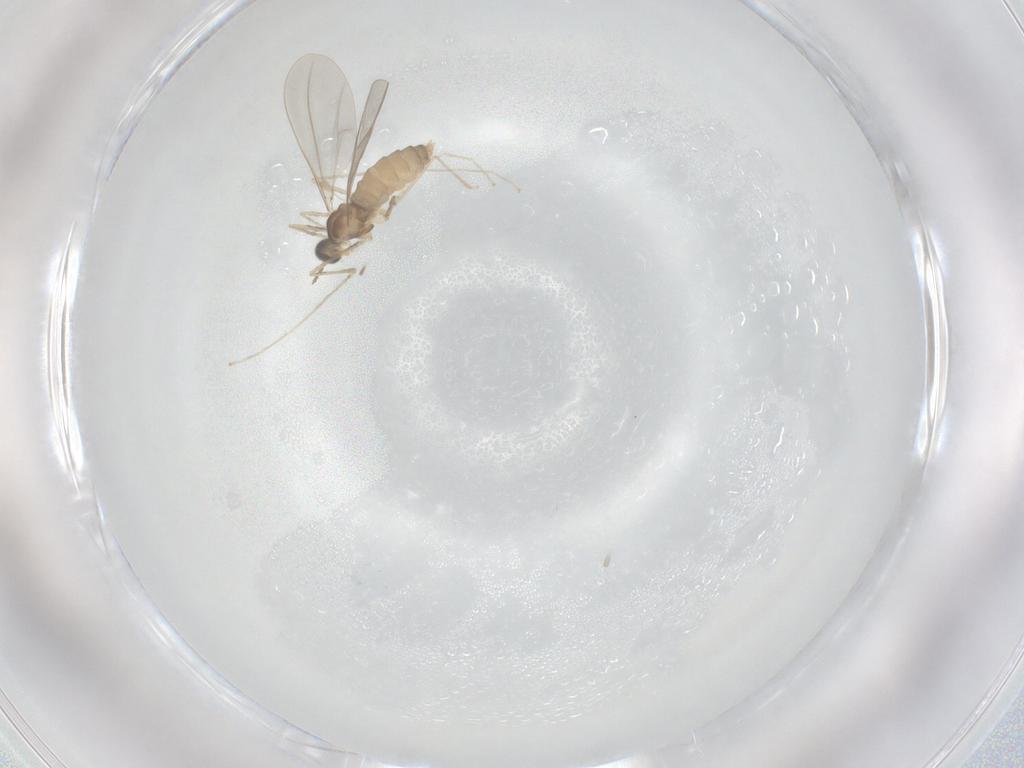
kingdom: Animalia
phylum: Arthropoda
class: Insecta
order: Diptera
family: Cecidomyiidae
